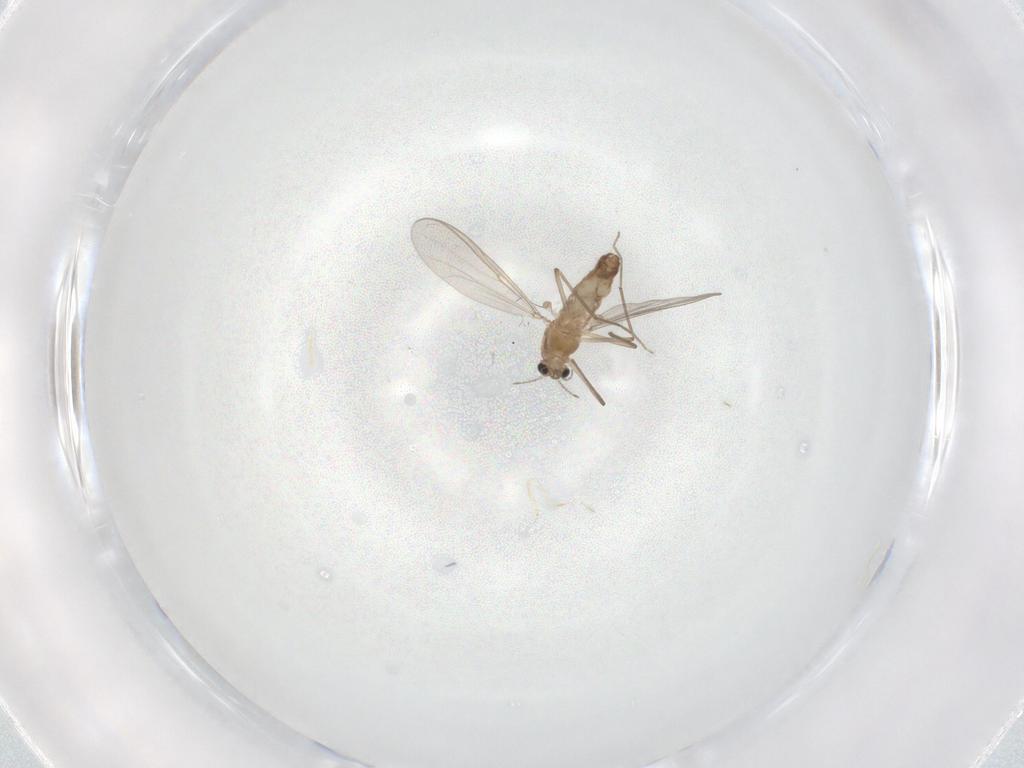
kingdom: Animalia
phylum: Arthropoda
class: Insecta
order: Diptera
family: Chironomidae
